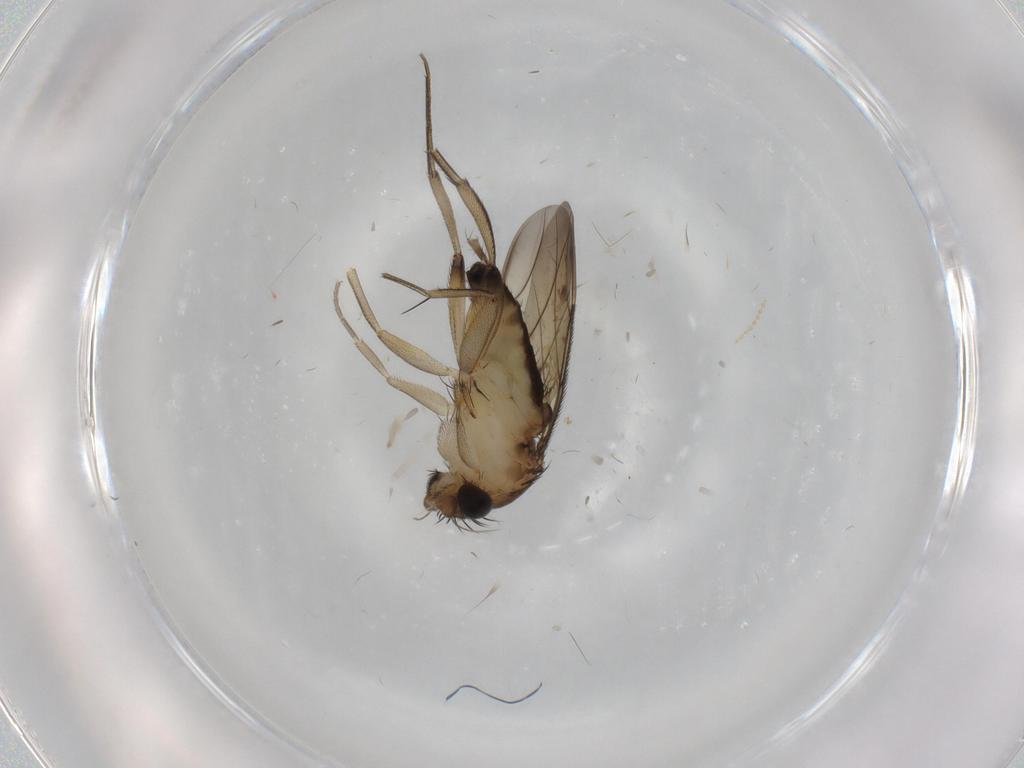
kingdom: Animalia
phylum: Arthropoda
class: Insecta
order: Diptera
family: Phoridae
